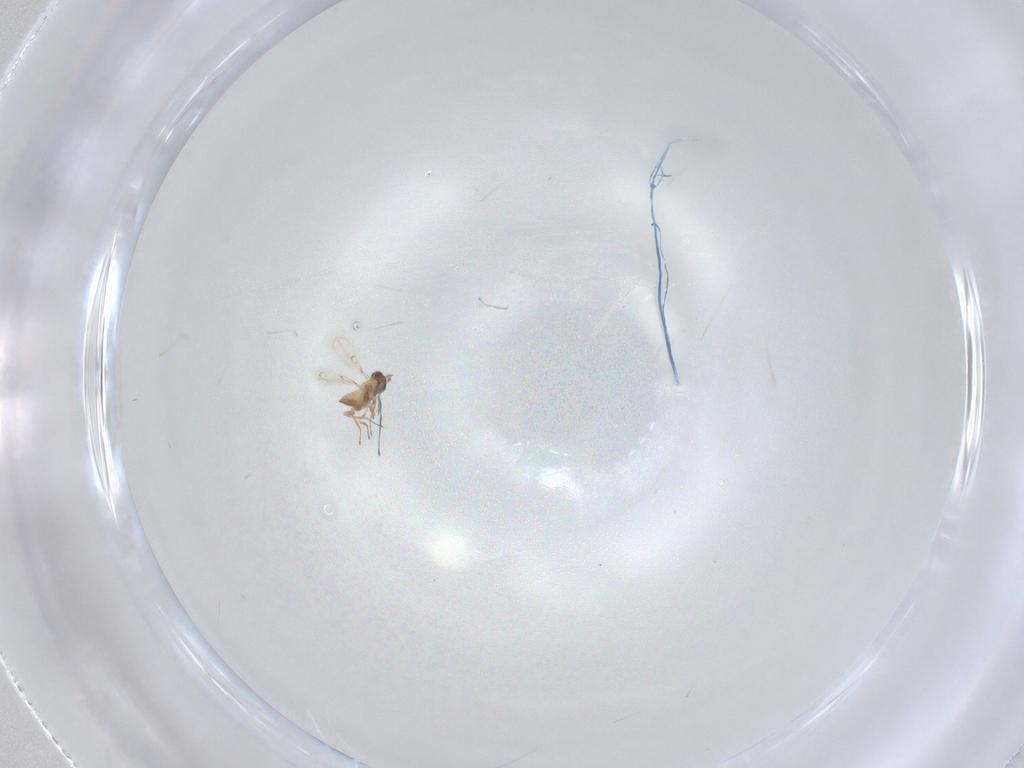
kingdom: Animalia
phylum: Arthropoda
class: Insecta
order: Hymenoptera
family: Trichogrammatidae
